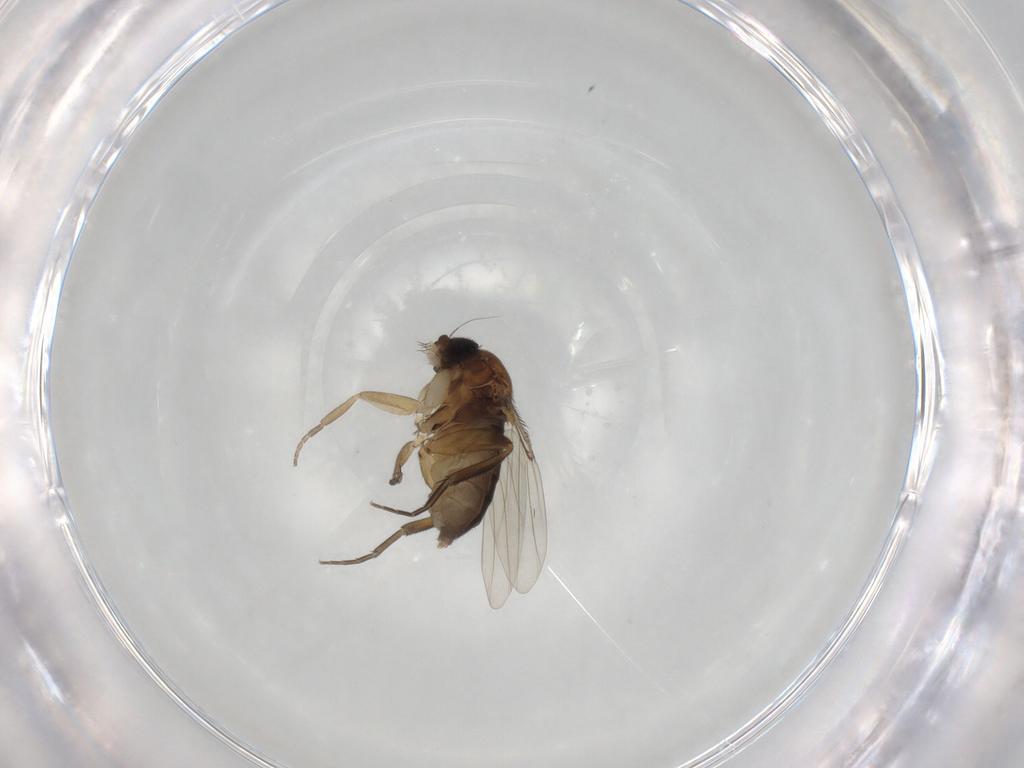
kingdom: Animalia
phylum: Arthropoda
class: Insecta
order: Diptera
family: Phoridae
